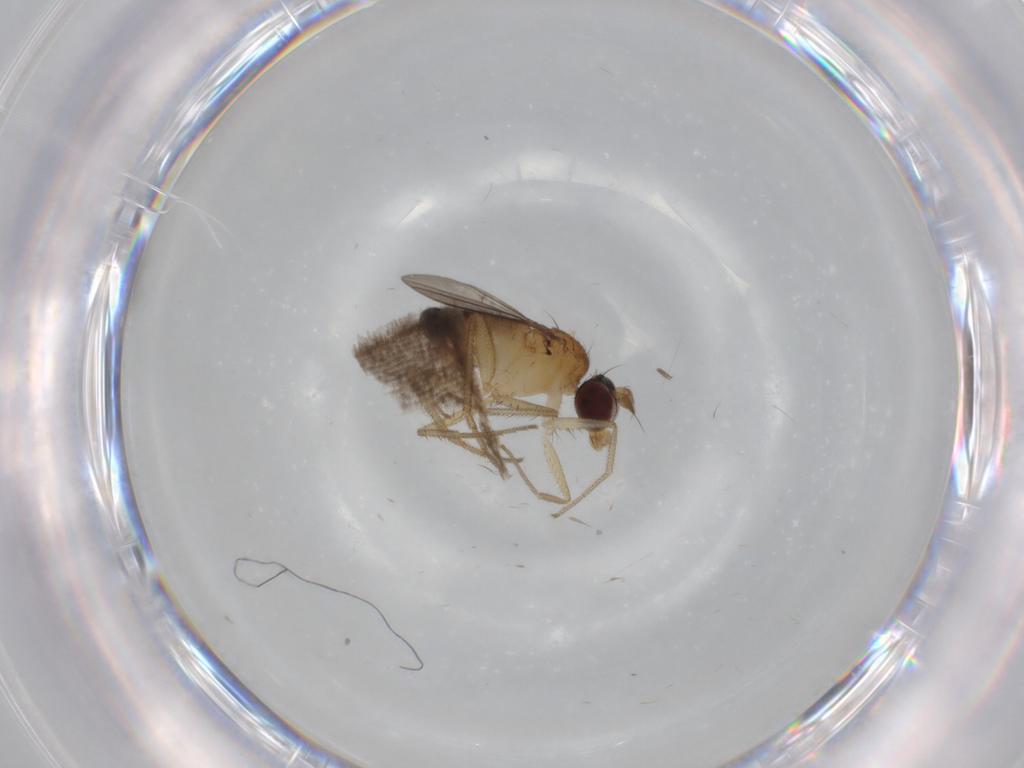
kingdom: Animalia
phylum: Arthropoda
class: Insecta
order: Diptera
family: Dolichopodidae
